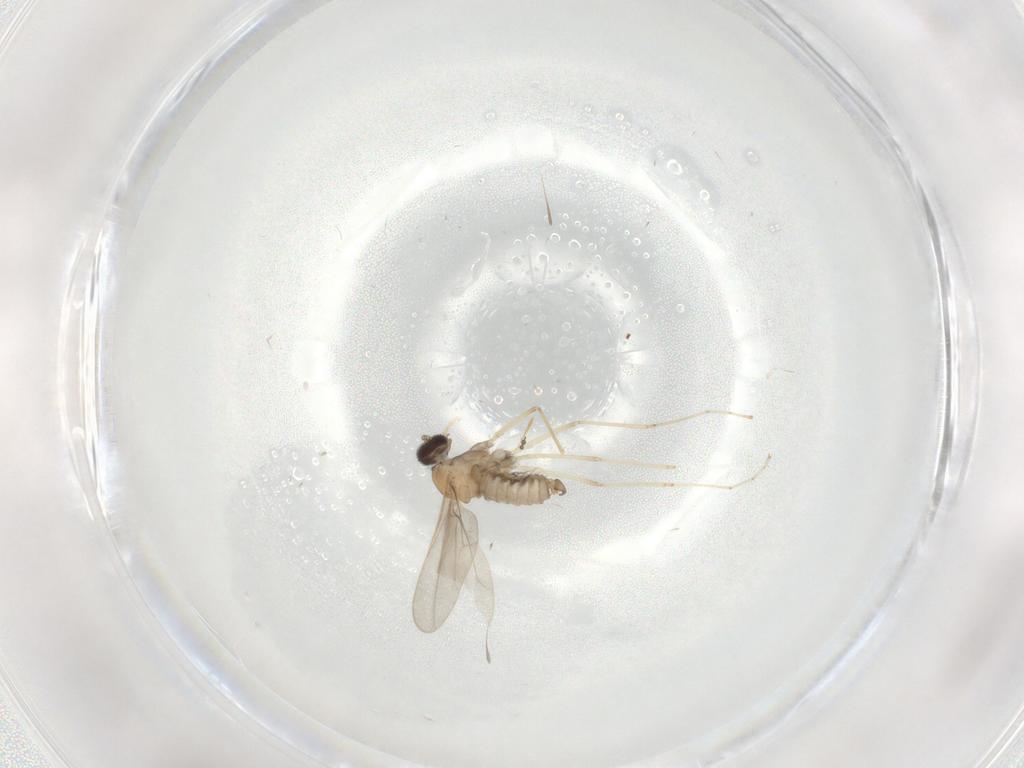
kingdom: Animalia
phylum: Arthropoda
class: Insecta
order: Diptera
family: Cecidomyiidae
